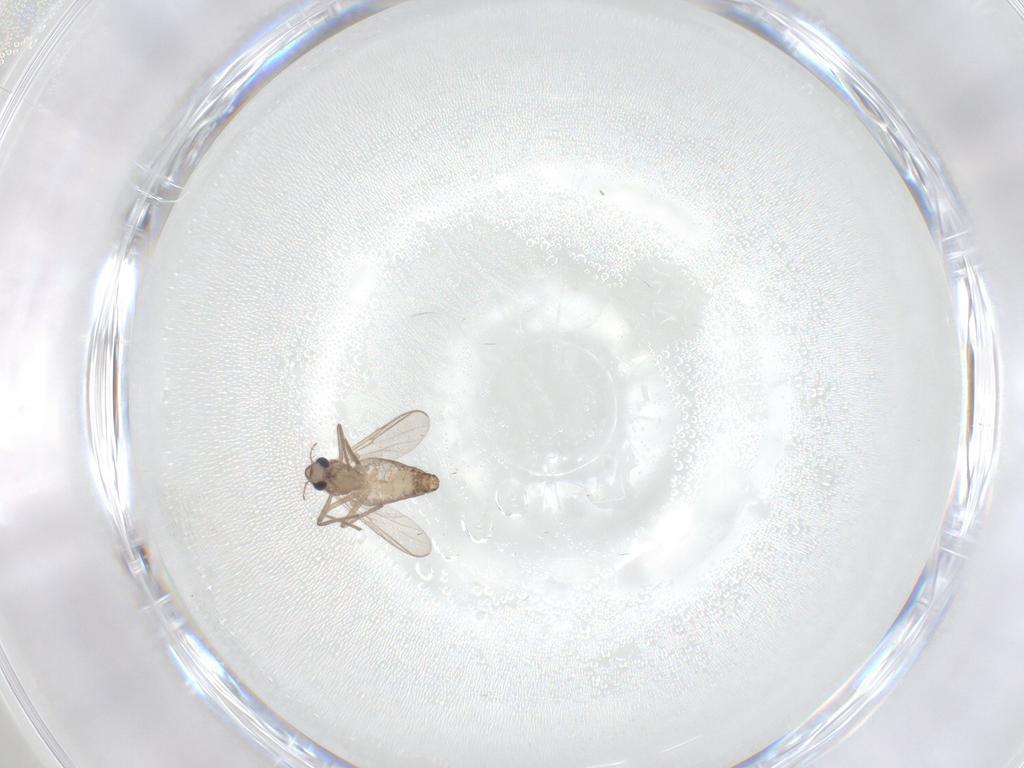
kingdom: Animalia
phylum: Arthropoda
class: Insecta
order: Diptera
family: Chironomidae
